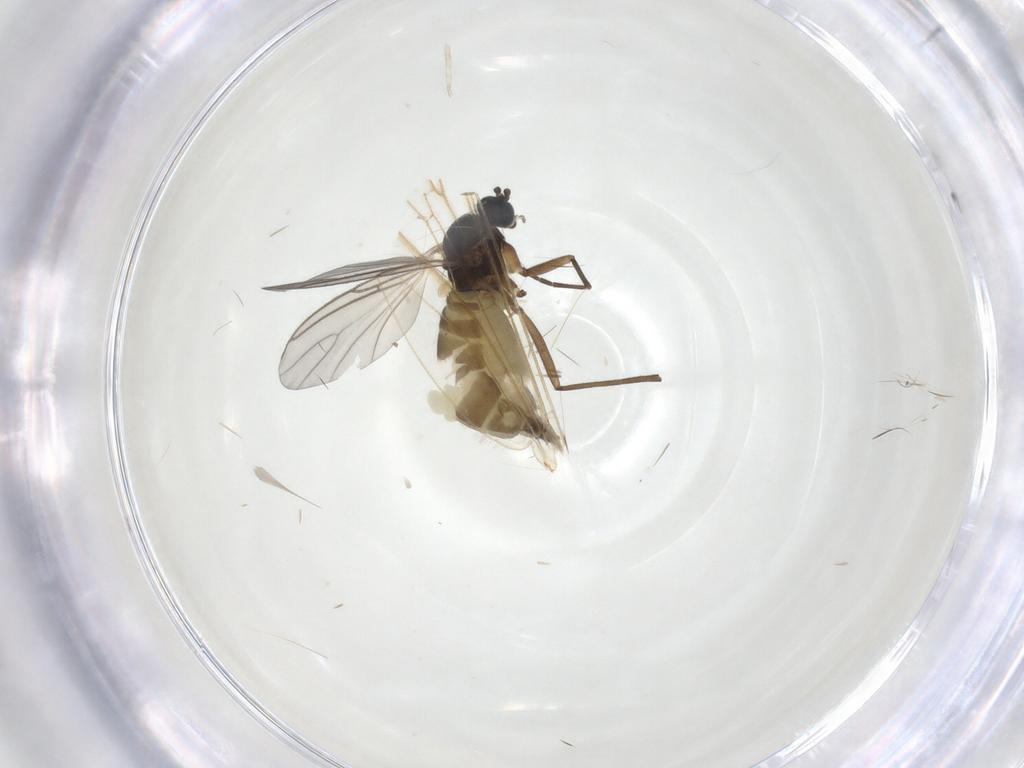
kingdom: Animalia
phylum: Arthropoda
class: Insecta
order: Diptera
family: Sciaridae
